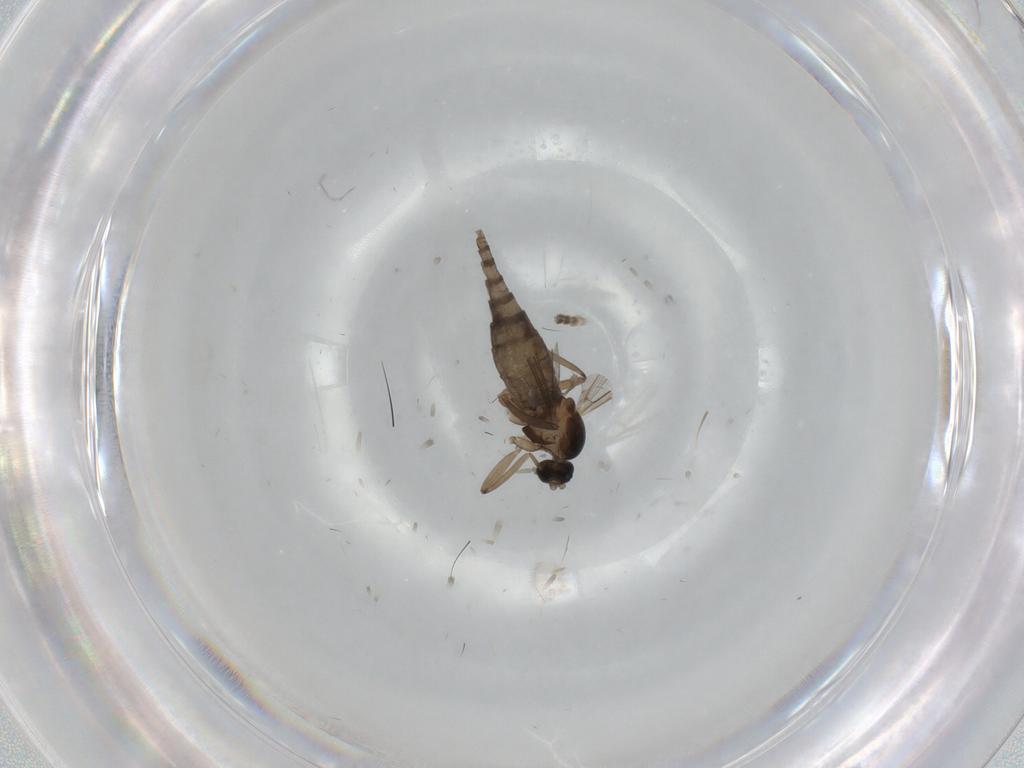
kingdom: Animalia
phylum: Arthropoda
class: Insecta
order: Diptera
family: Cecidomyiidae
